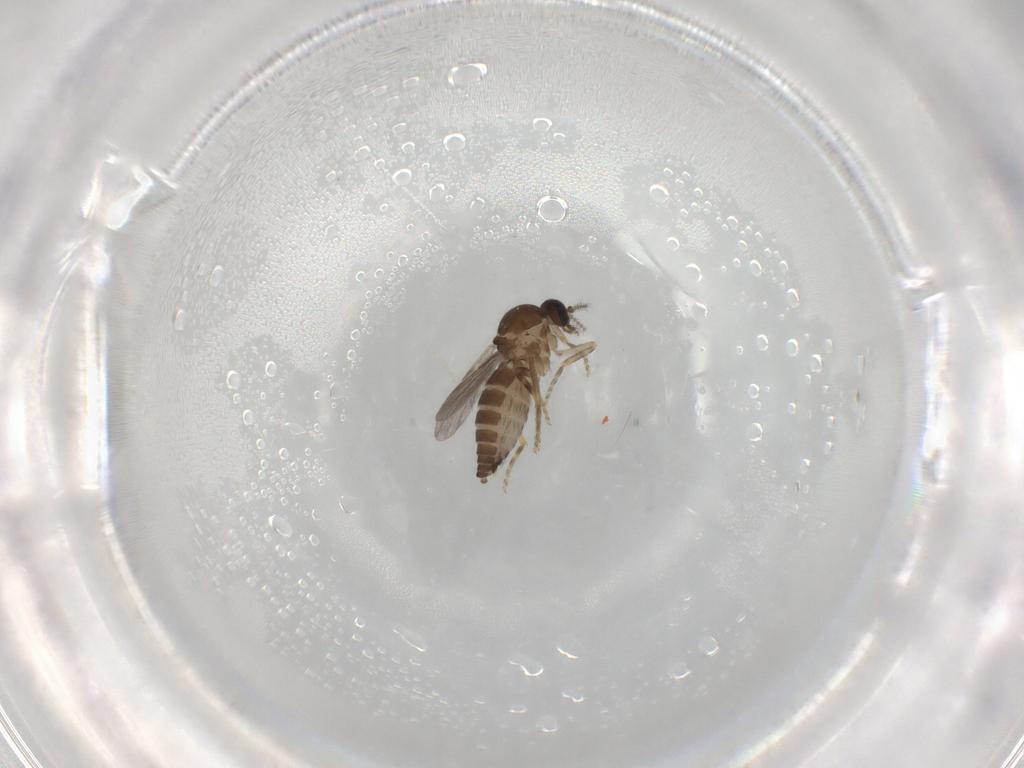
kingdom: Animalia
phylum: Arthropoda
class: Insecta
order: Diptera
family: Ceratopogonidae
